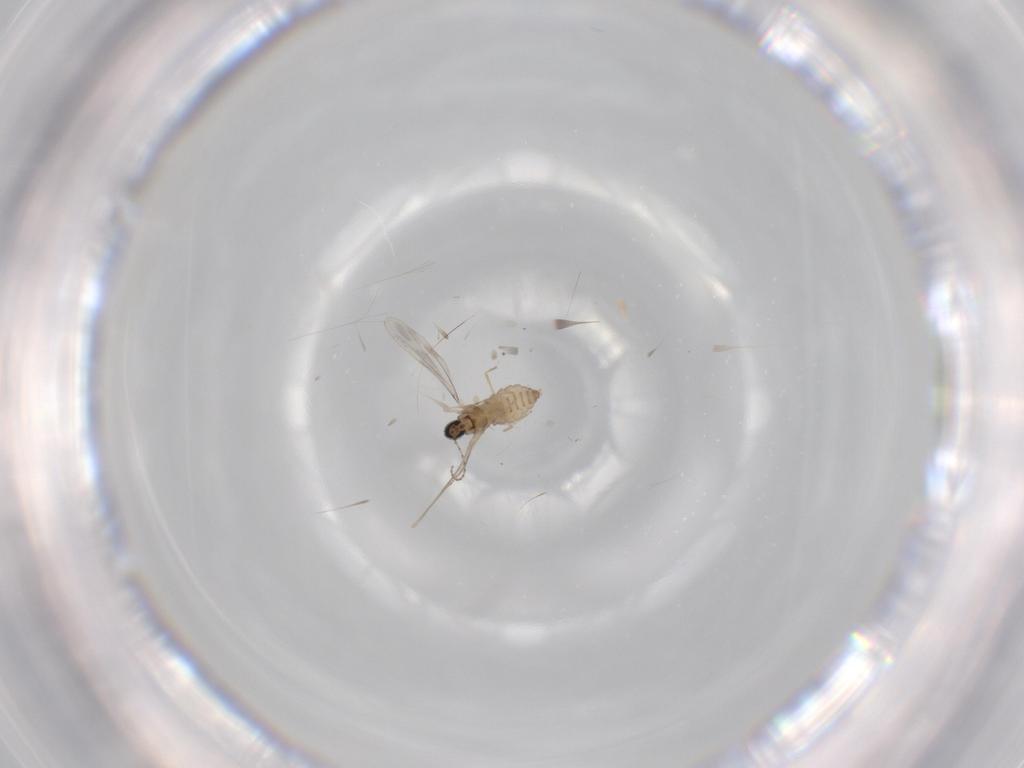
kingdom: Animalia
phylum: Arthropoda
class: Insecta
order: Diptera
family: Cecidomyiidae
